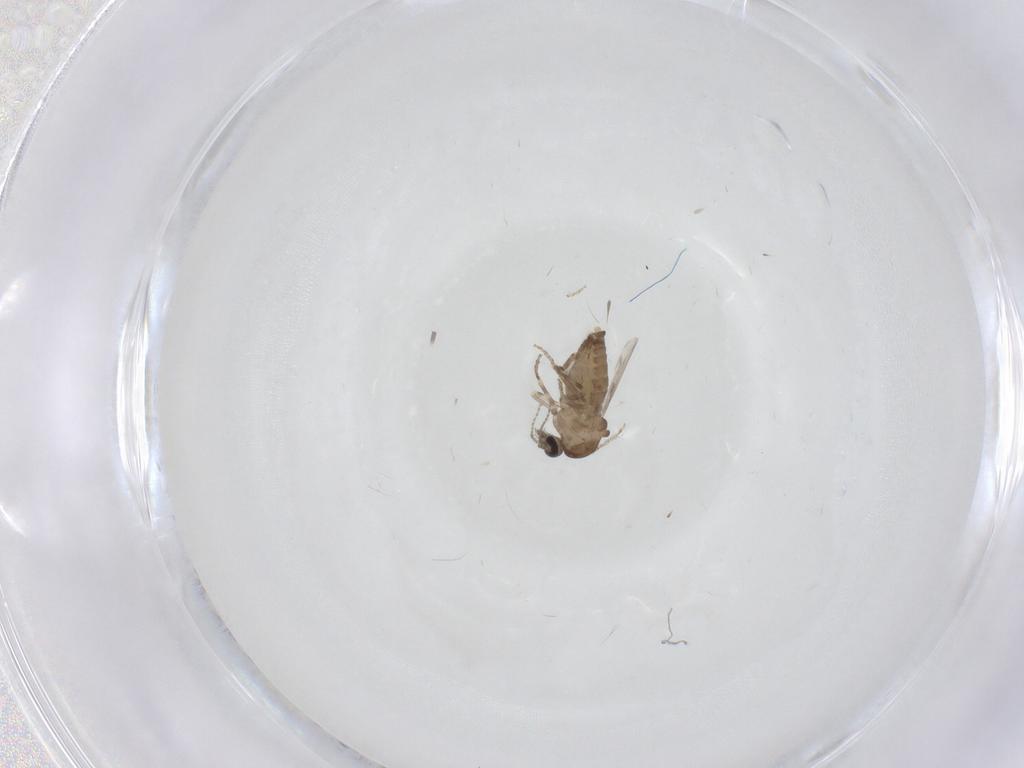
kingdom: Animalia
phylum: Arthropoda
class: Insecta
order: Diptera
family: Ceratopogonidae
